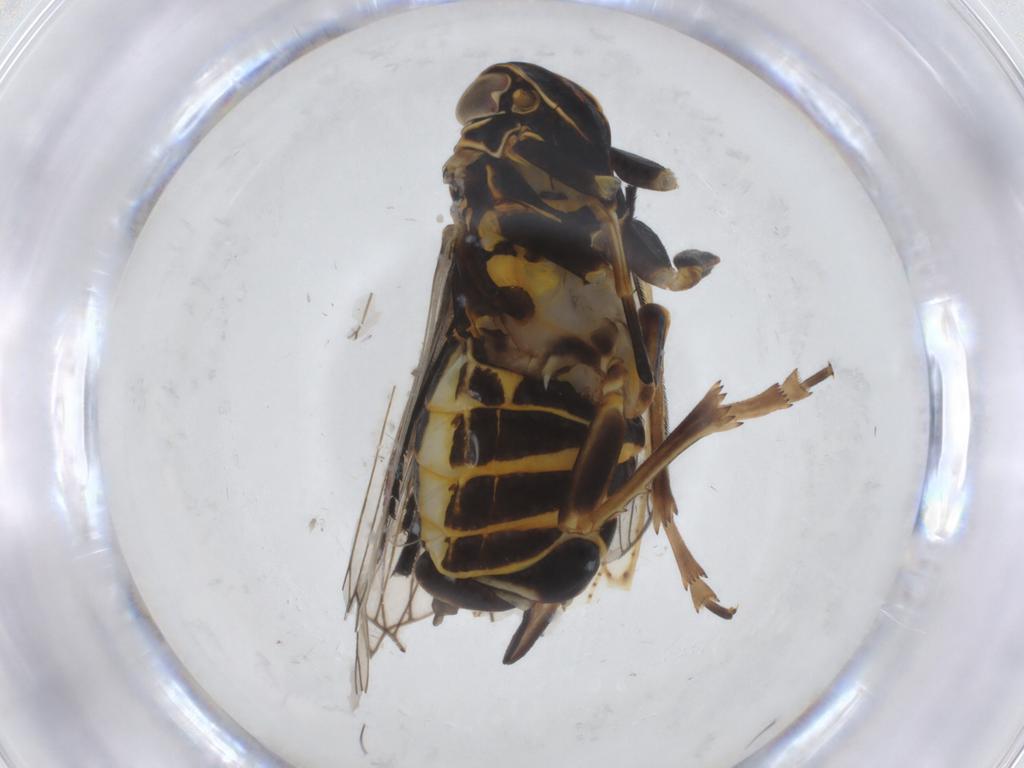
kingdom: Animalia
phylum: Arthropoda
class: Insecta
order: Hemiptera
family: Cixiidae
